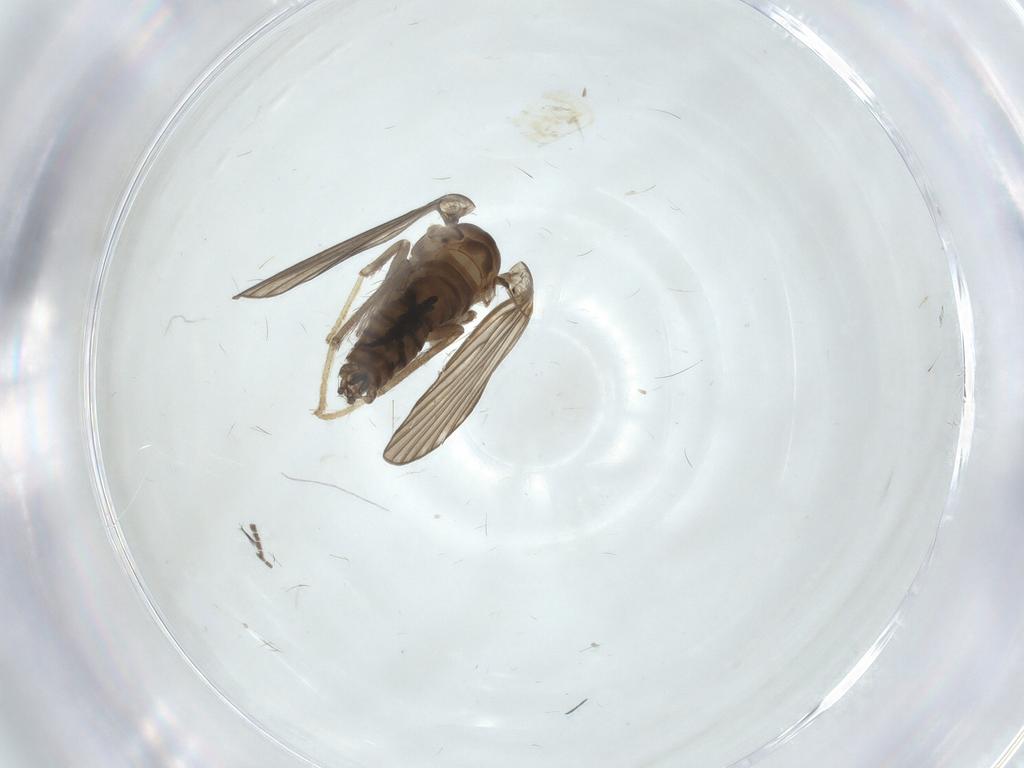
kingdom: Animalia
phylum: Arthropoda
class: Insecta
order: Diptera
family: Sciaridae
